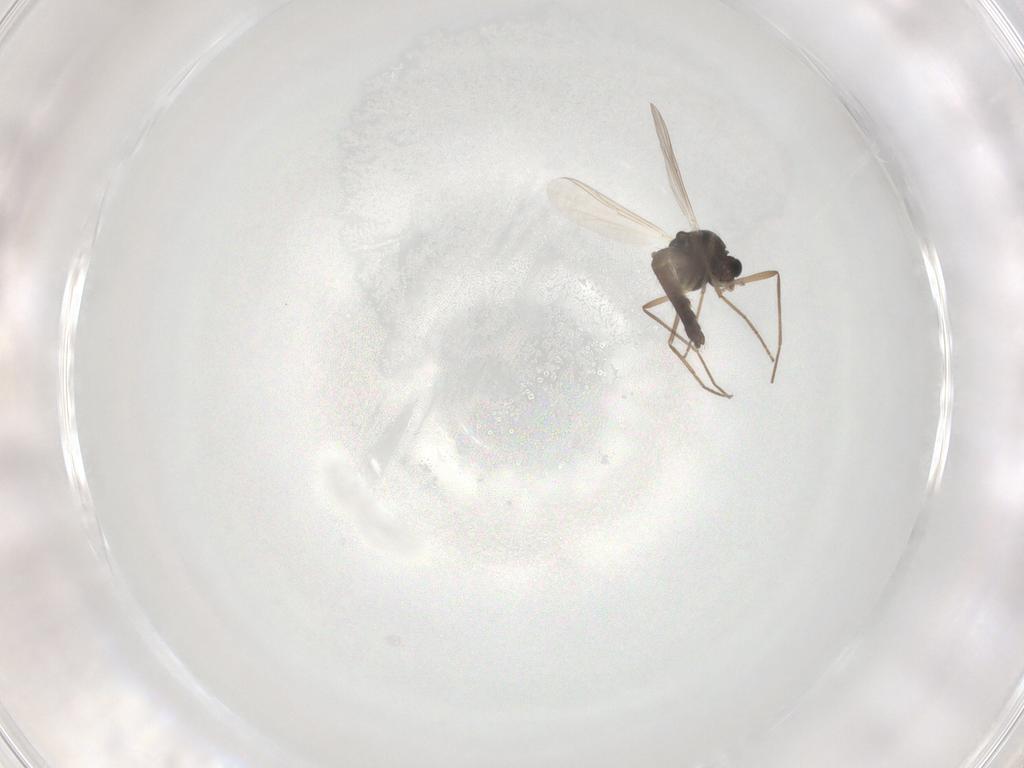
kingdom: Animalia
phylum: Arthropoda
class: Insecta
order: Diptera
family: Chironomidae
